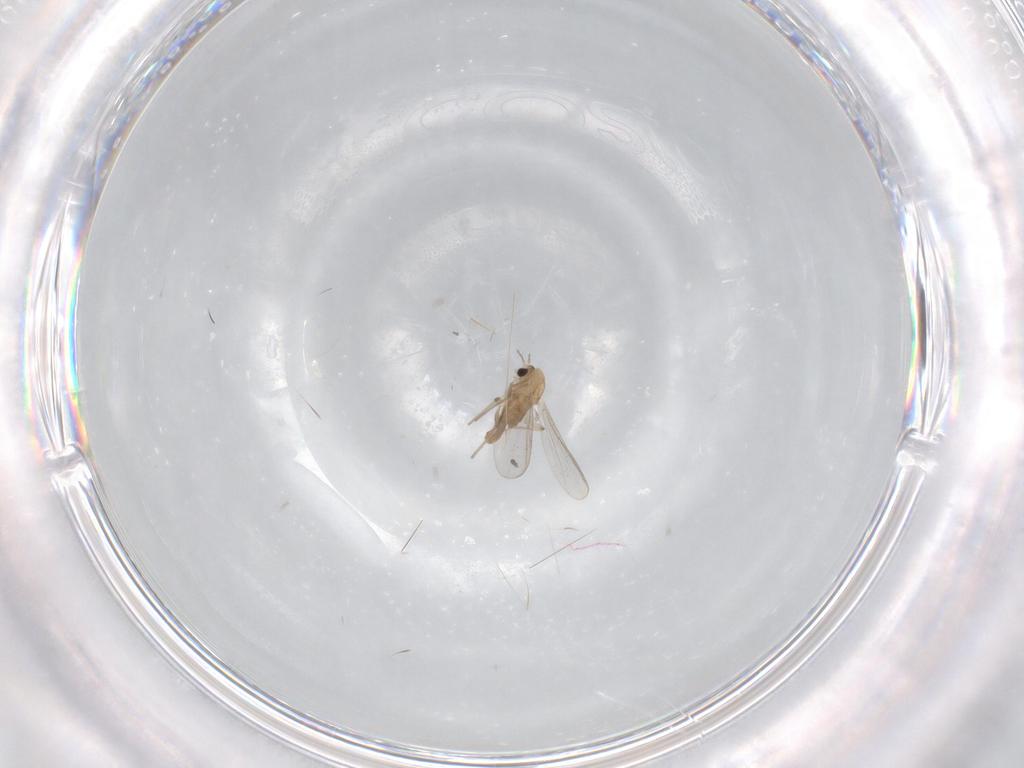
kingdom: Animalia
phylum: Arthropoda
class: Insecta
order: Diptera
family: Chironomidae
